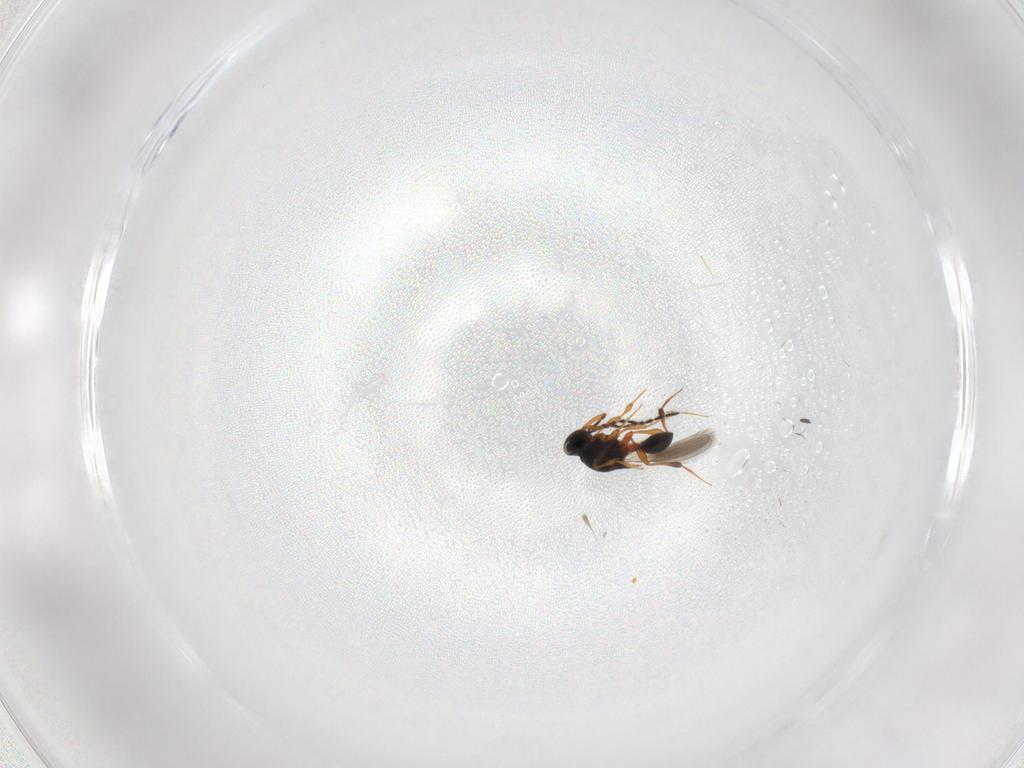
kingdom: Animalia
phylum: Arthropoda
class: Insecta
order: Hymenoptera
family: Platygastridae
